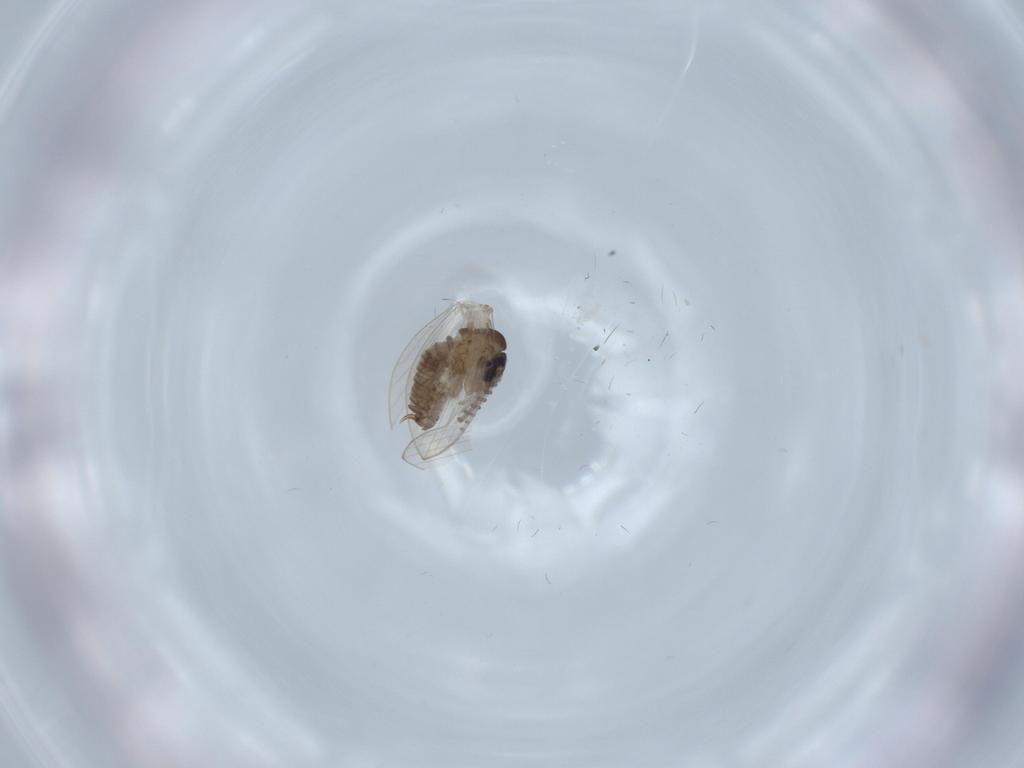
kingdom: Animalia
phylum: Arthropoda
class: Insecta
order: Diptera
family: Psychodidae
